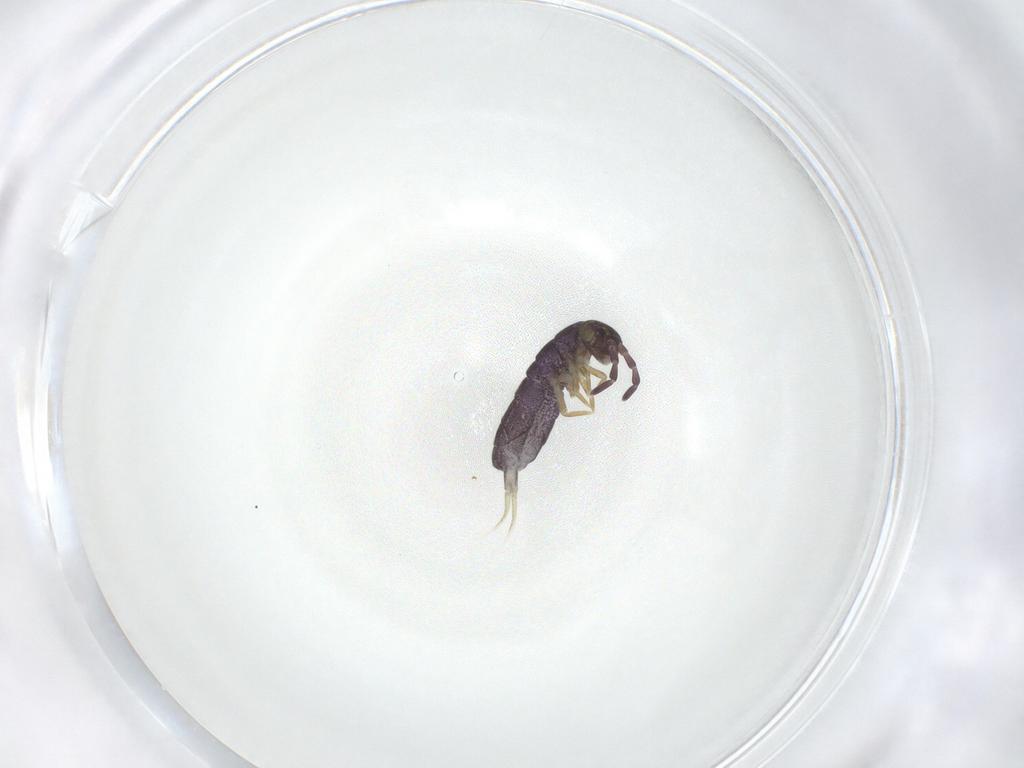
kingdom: Animalia
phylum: Arthropoda
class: Collembola
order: Entomobryomorpha
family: Isotomidae
